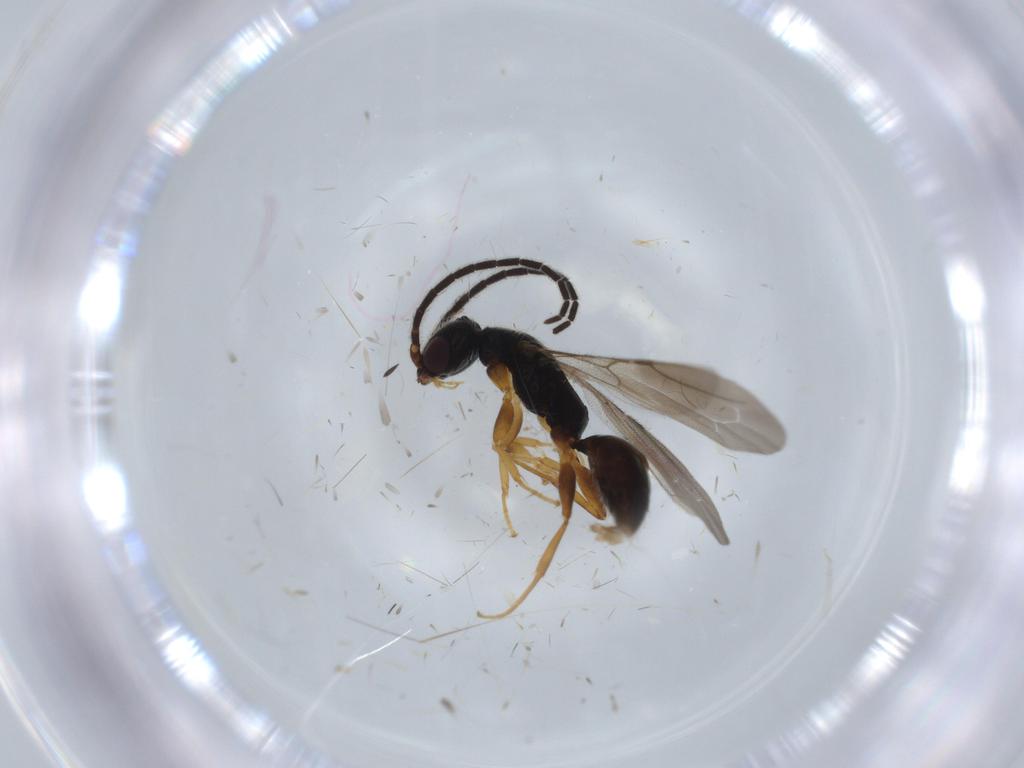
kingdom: Animalia
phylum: Arthropoda
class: Insecta
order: Hymenoptera
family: Bethylidae
